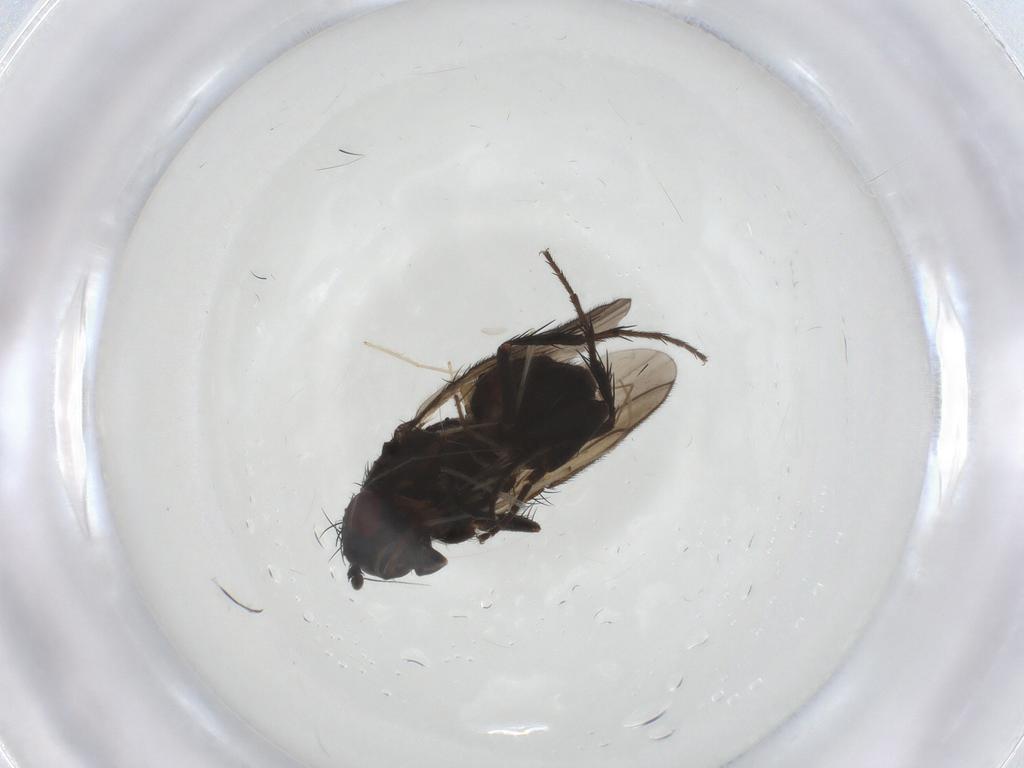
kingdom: Animalia
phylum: Arthropoda
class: Insecta
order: Diptera
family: Sphaeroceridae
